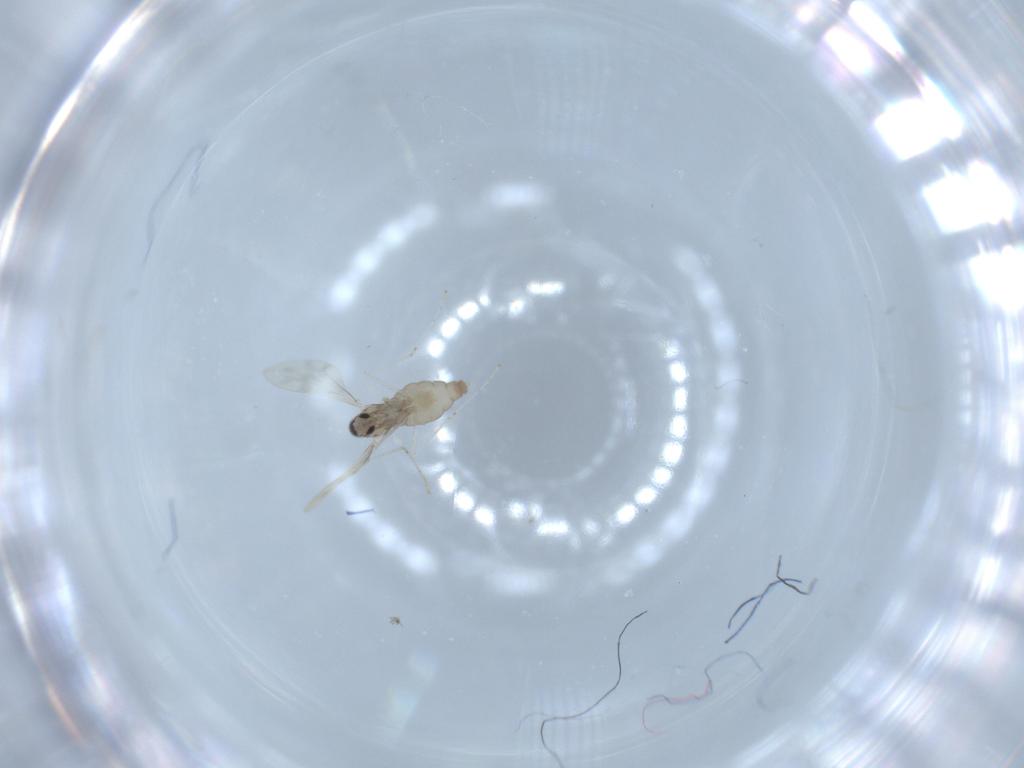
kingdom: Animalia
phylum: Arthropoda
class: Insecta
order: Diptera
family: Cecidomyiidae
